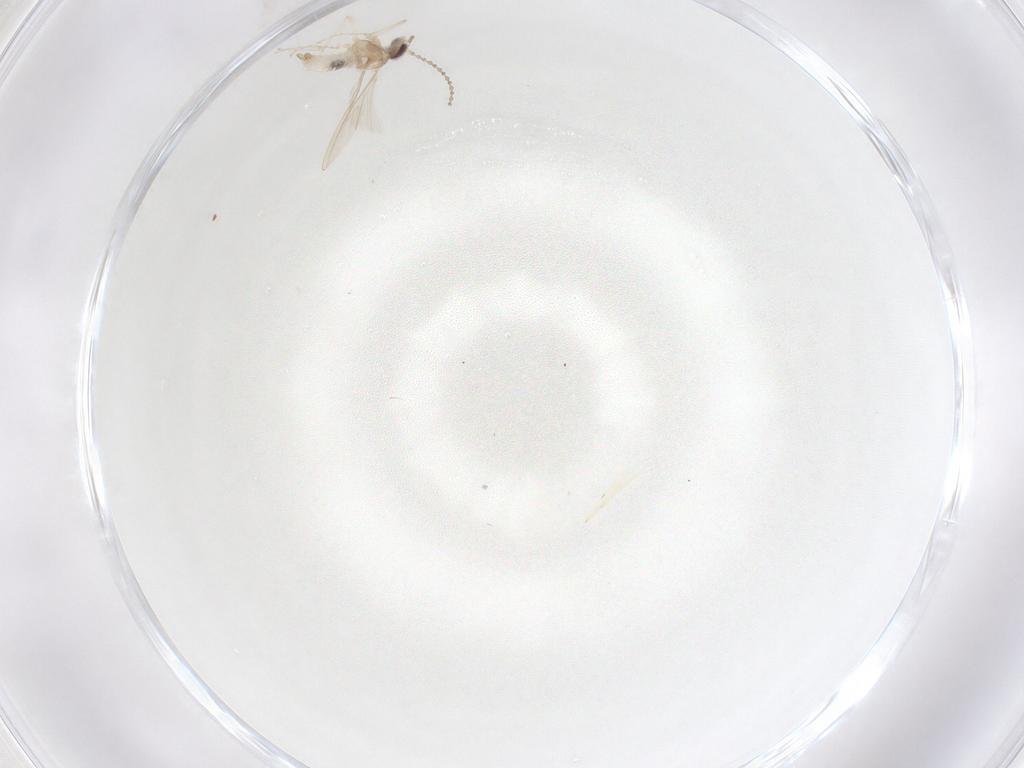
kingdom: Animalia
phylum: Arthropoda
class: Insecta
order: Diptera
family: Cecidomyiidae
